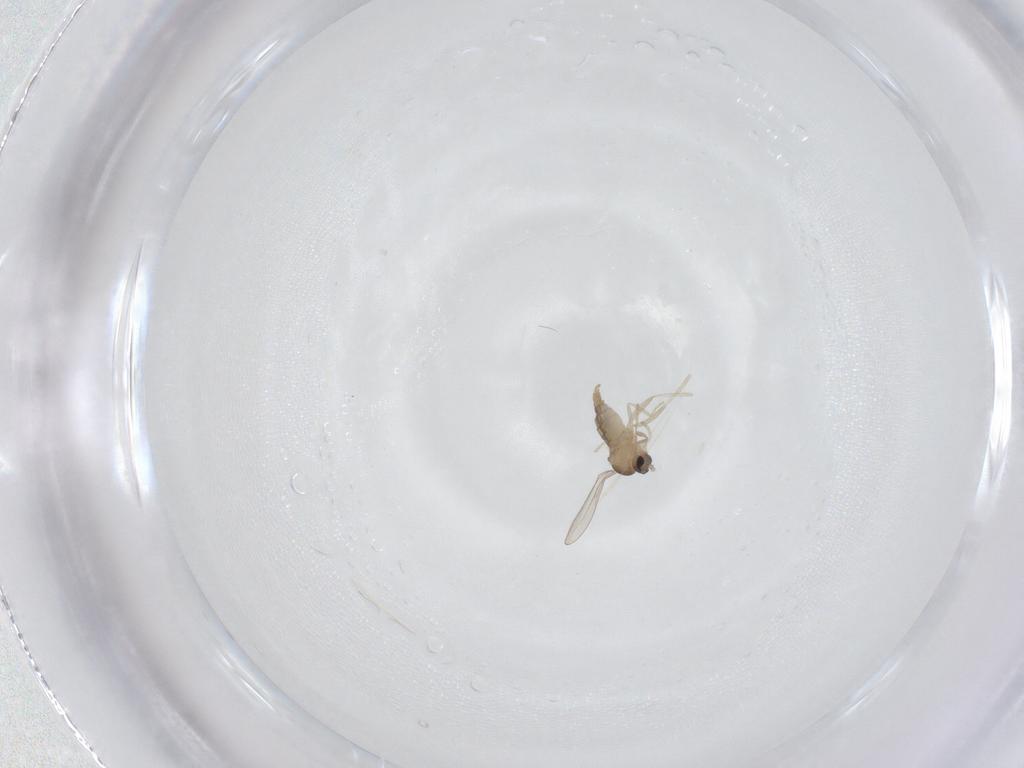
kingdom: Animalia
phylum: Arthropoda
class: Insecta
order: Diptera
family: Cecidomyiidae
